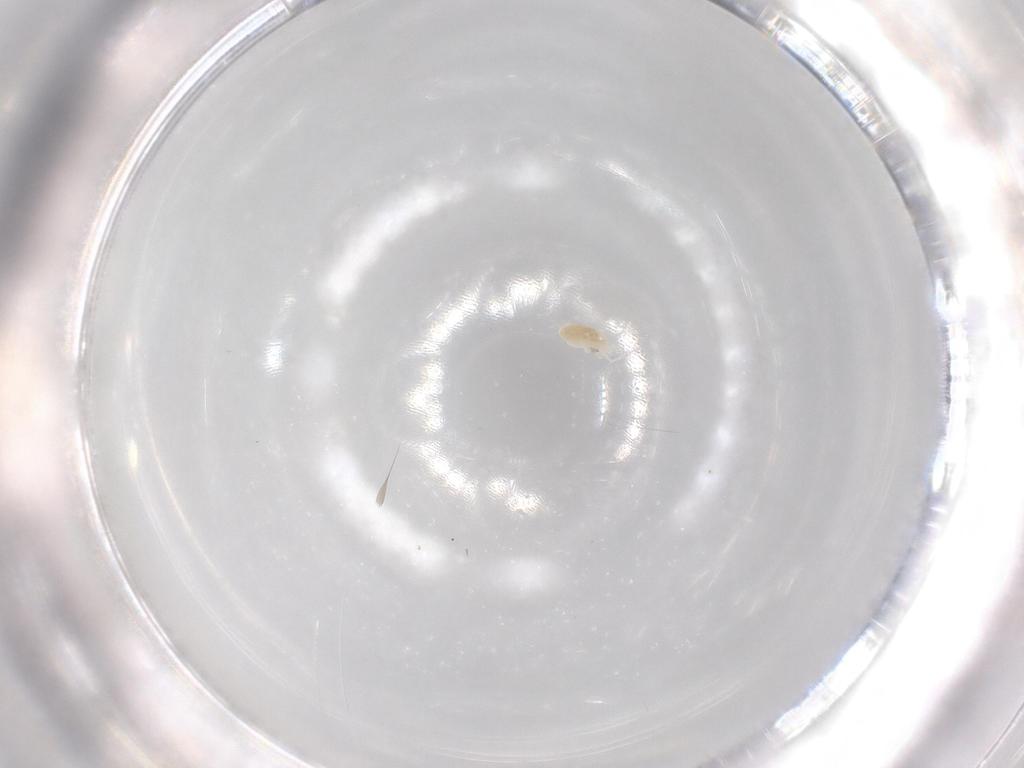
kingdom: Animalia
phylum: Arthropoda
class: Arachnida
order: Trombidiformes
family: Eupodidae
